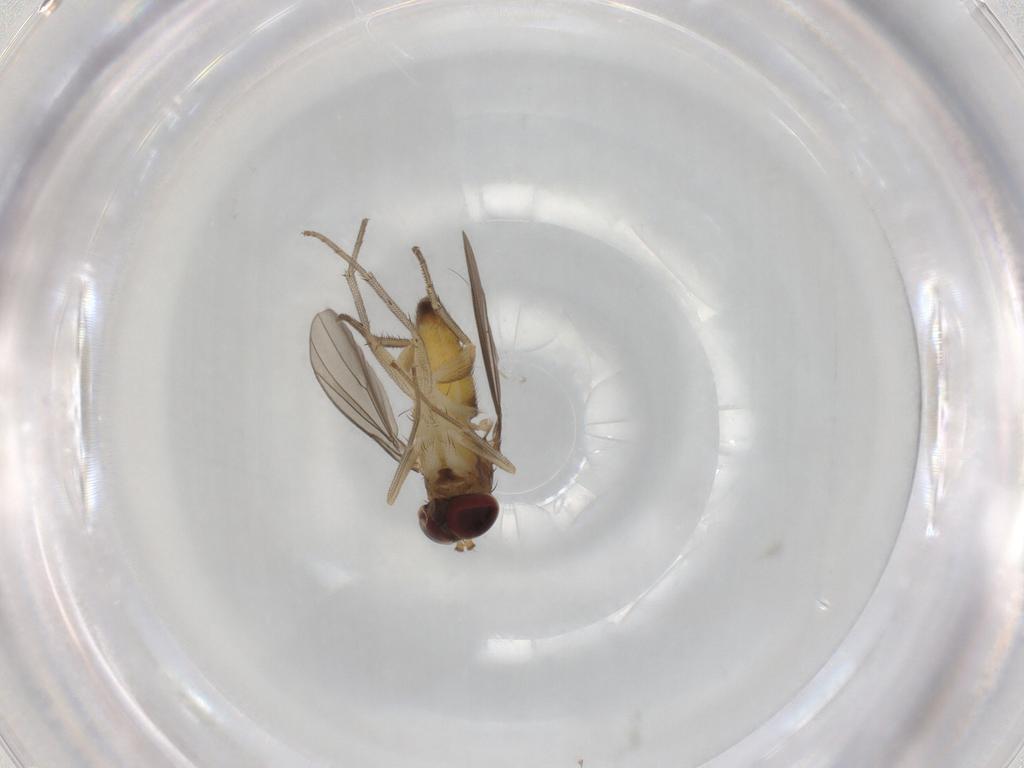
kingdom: Animalia
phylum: Arthropoda
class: Insecta
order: Diptera
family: Dolichopodidae
